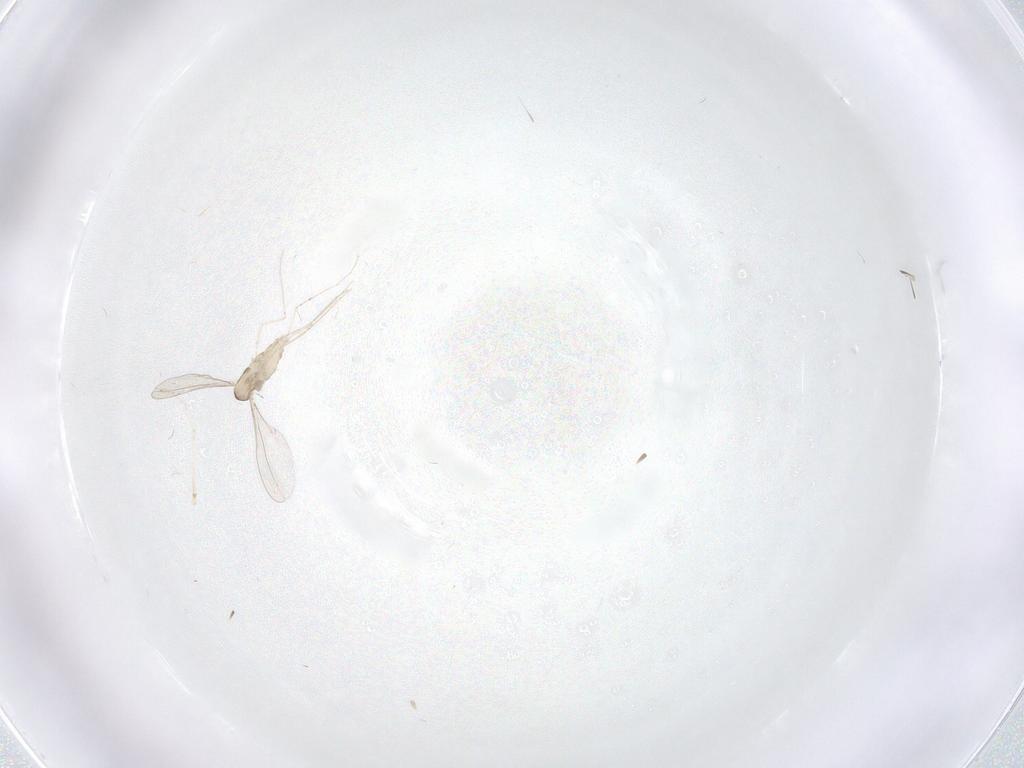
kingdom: Animalia
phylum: Arthropoda
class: Insecta
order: Diptera
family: Cecidomyiidae
